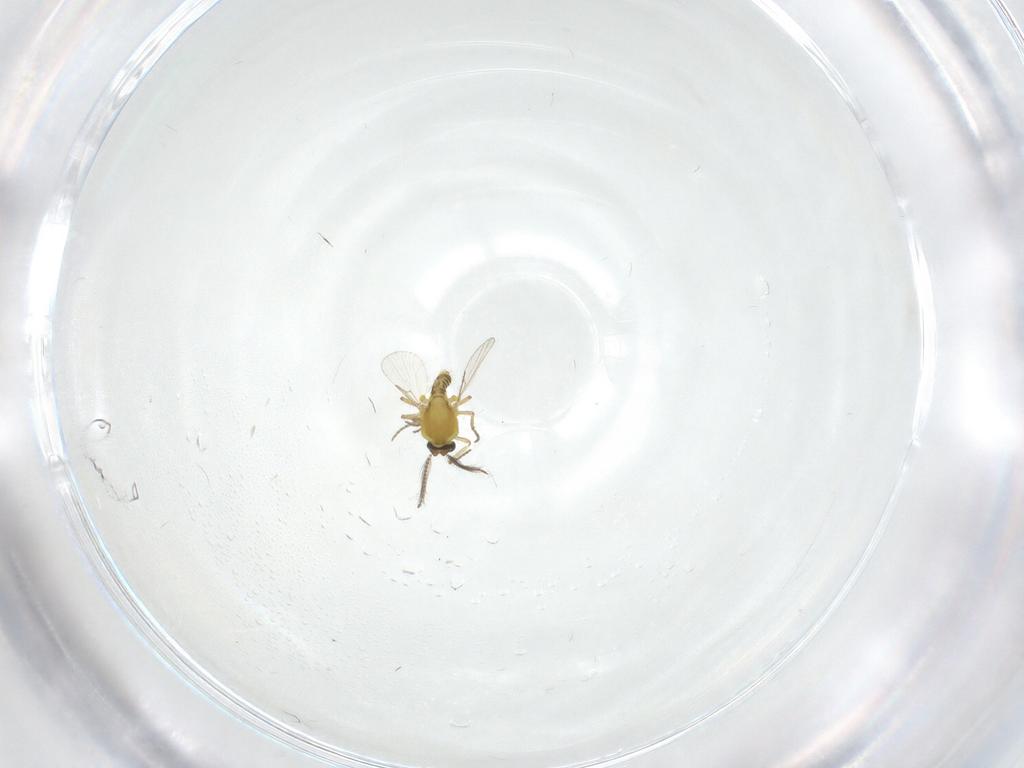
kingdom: Animalia
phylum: Arthropoda
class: Insecta
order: Diptera
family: Ceratopogonidae
